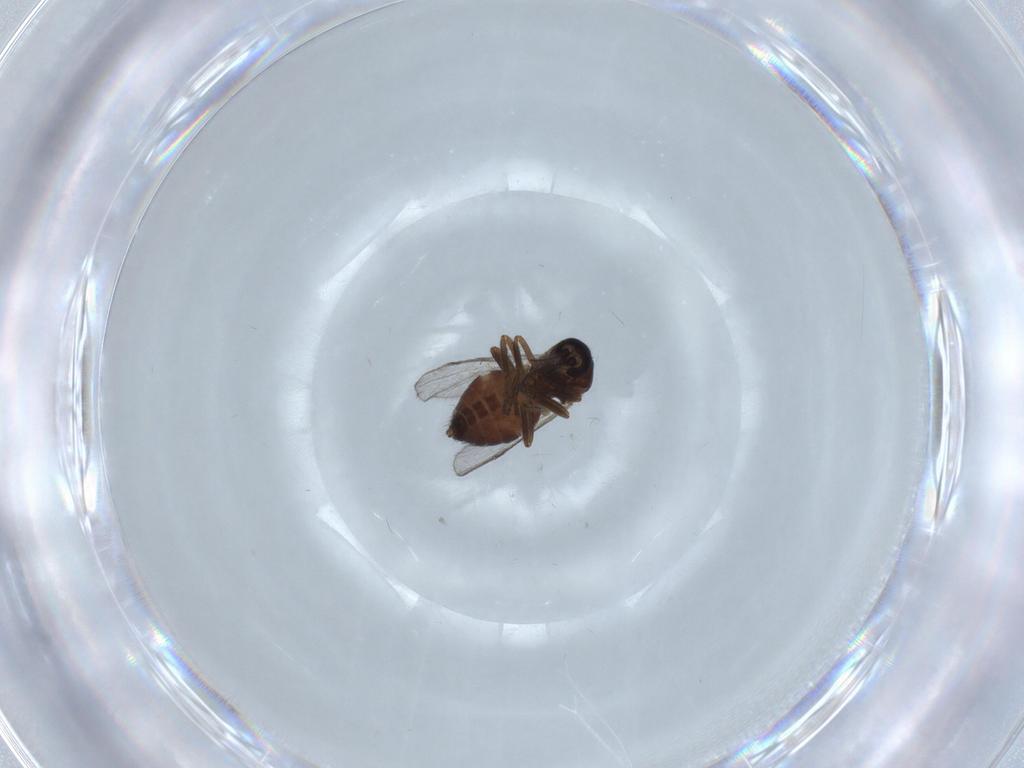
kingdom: Animalia
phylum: Arthropoda
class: Insecta
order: Diptera
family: Ceratopogonidae
